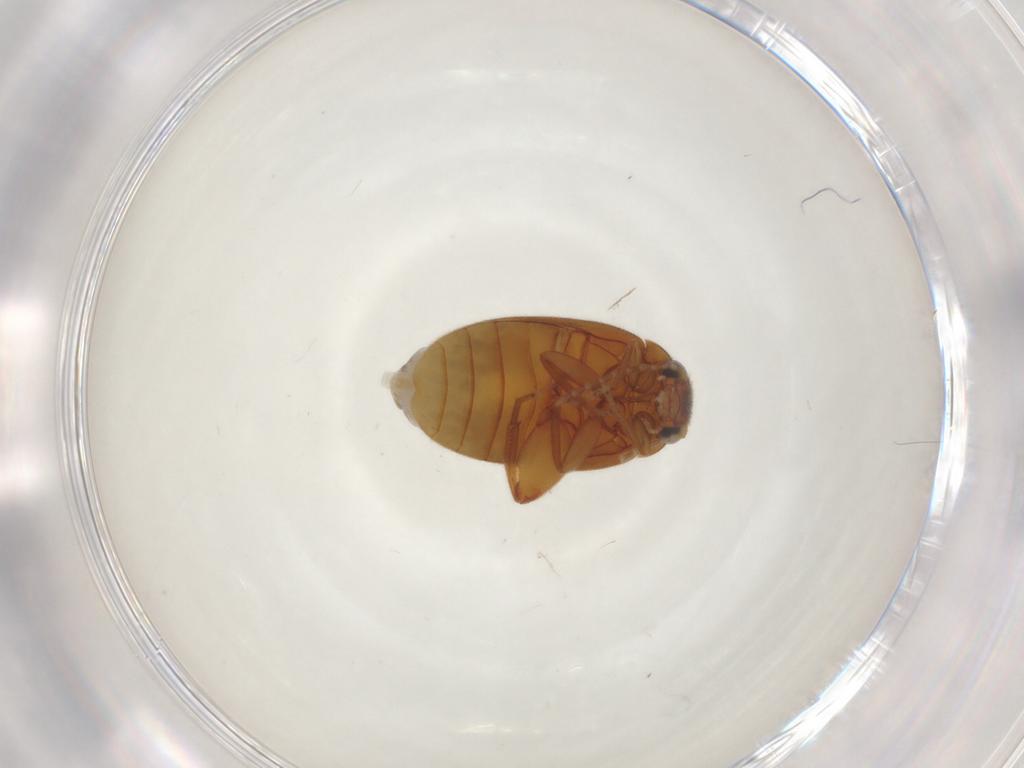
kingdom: Animalia
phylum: Arthropoda
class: Insecta
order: Coleoptera
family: Scirtidae
